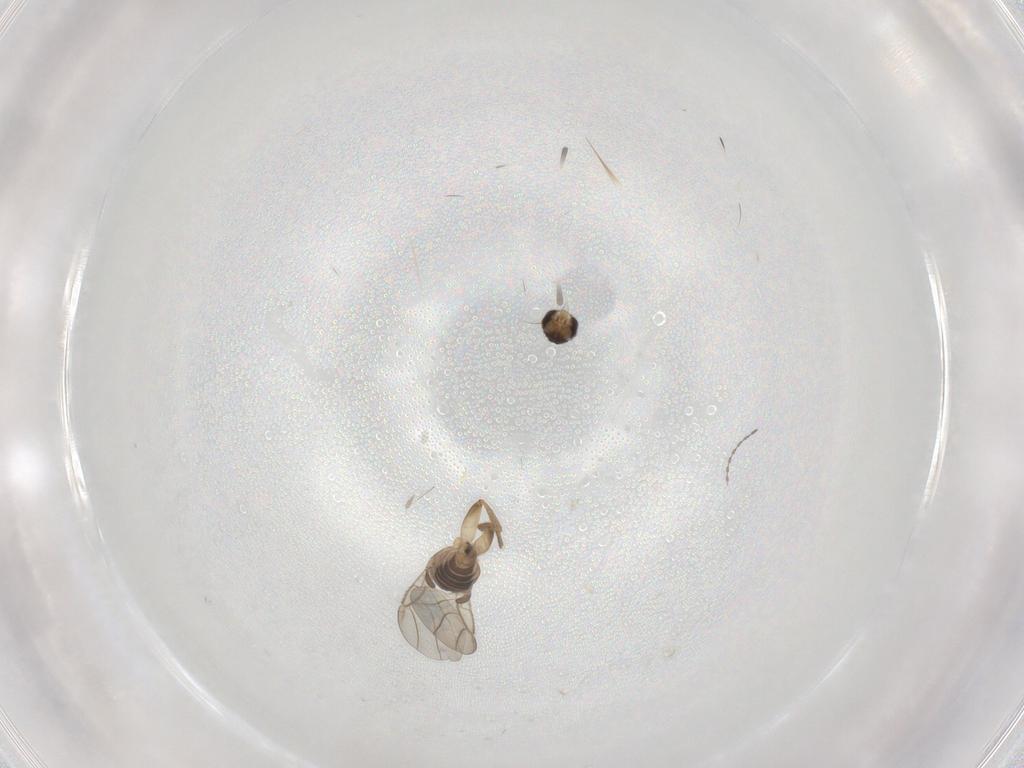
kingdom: Animalia
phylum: Arthropoda
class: Insecta
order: Diptera
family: Phoridae
